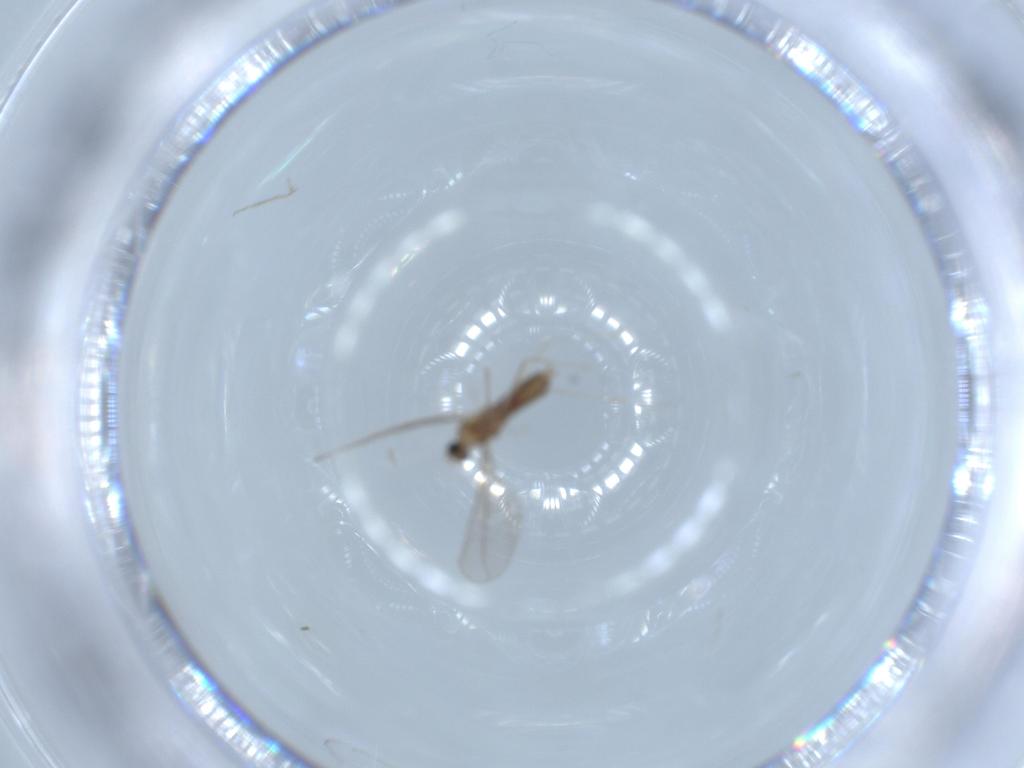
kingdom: Animalia
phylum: Arthropoda
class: Insecta
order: Diptera
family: Cecidomyiidae
